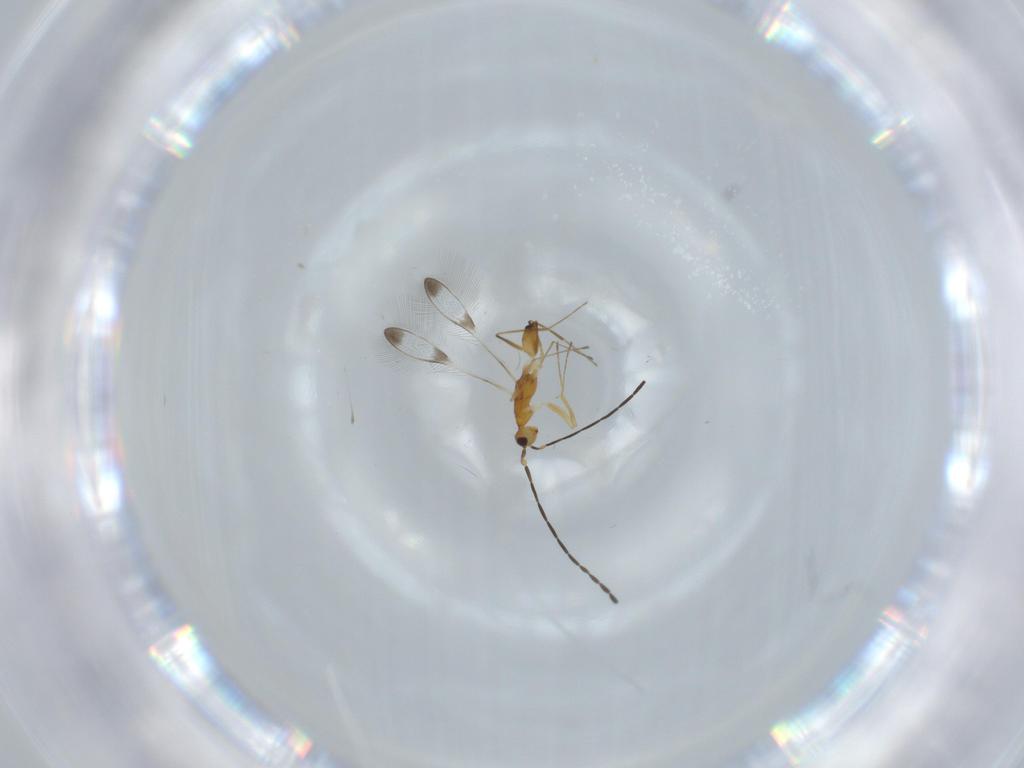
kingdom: Animalia
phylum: Arthropoda
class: Insecta
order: Hymenoptera
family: Mymaridae
